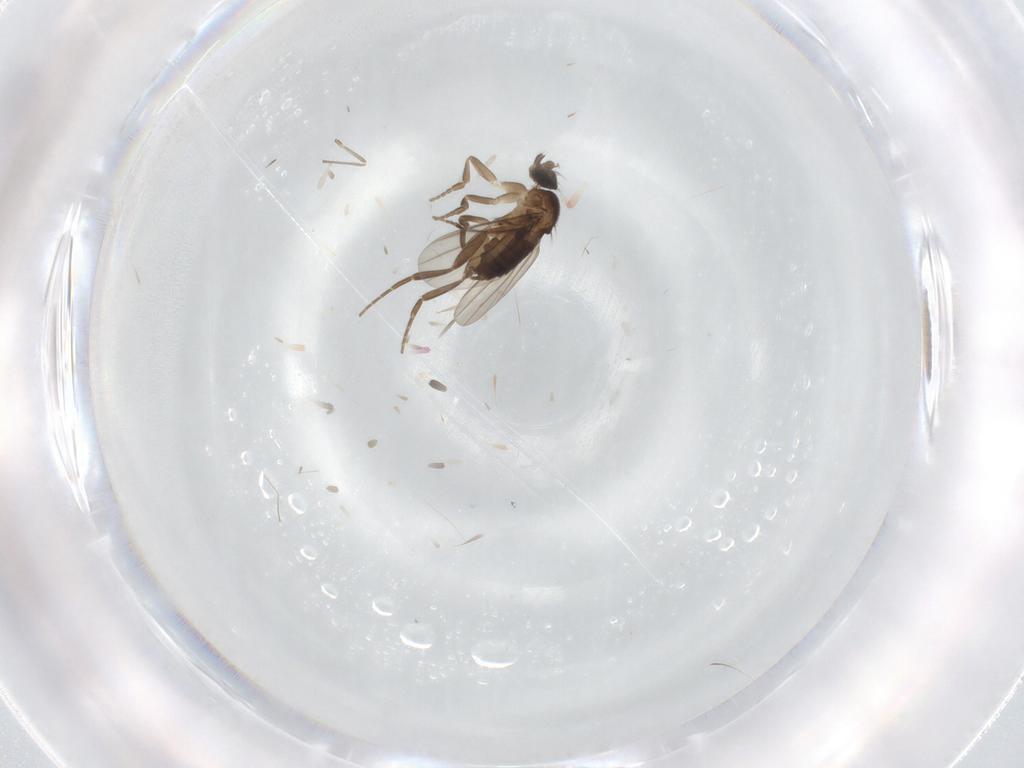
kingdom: Animalia
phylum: Arthropoda
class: Insecta
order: Diptera
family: Phoridae
